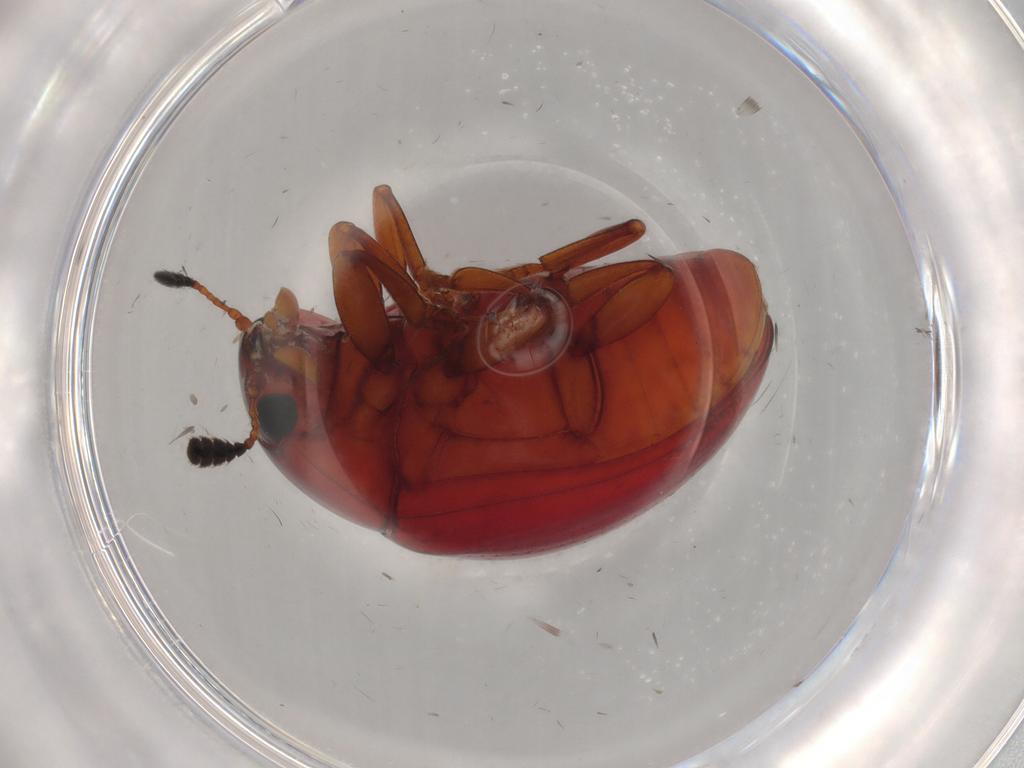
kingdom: Animalia
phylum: Arthropoda
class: Insecta
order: Coleoptera
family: Erotylidae
